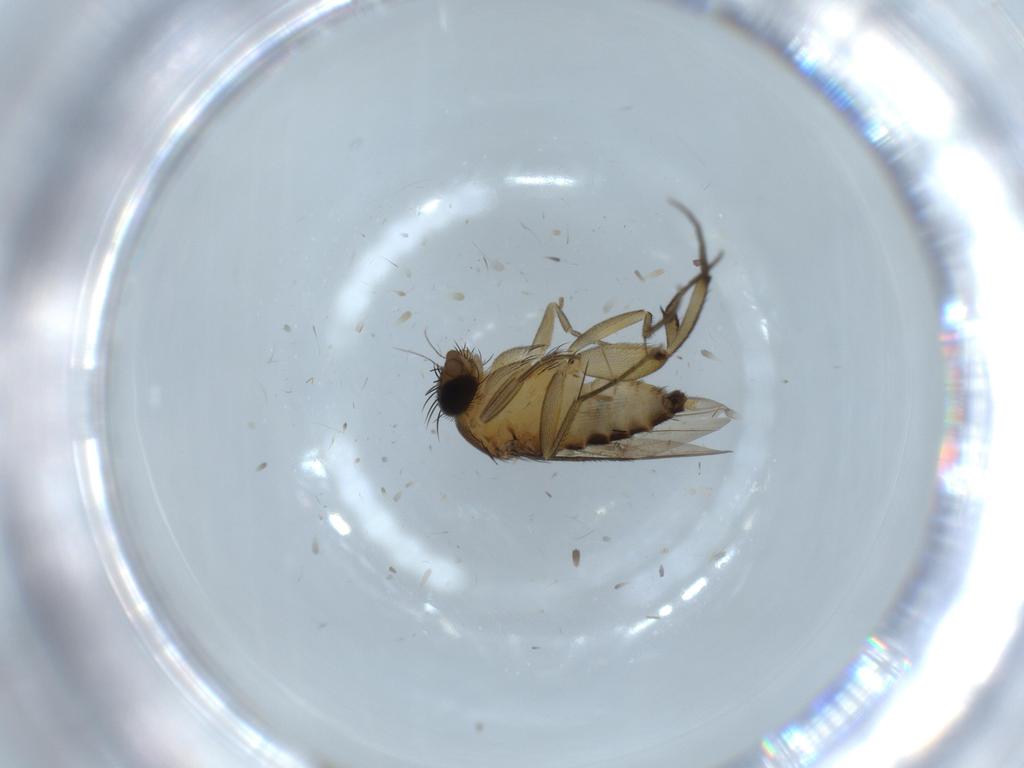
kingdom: Animalia
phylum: Arthropoda
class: Insecta
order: Diptera
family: Phoridae
